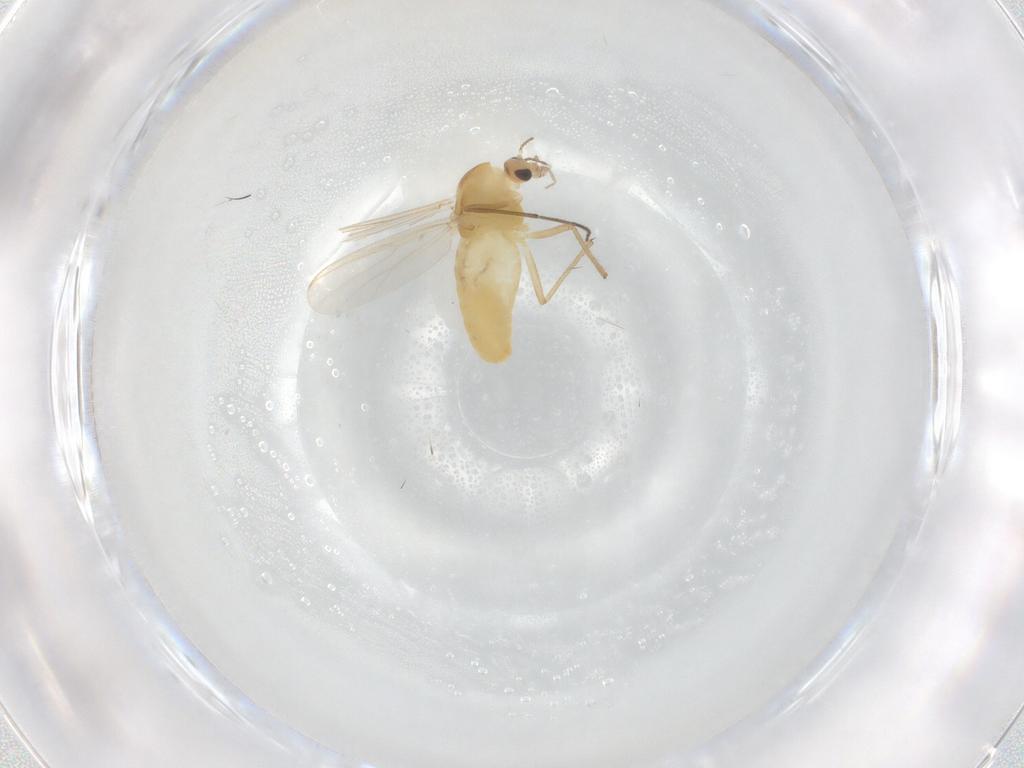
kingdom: Animalia
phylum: Arthropoda
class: Insecta
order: Diptera
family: Chironomidae
